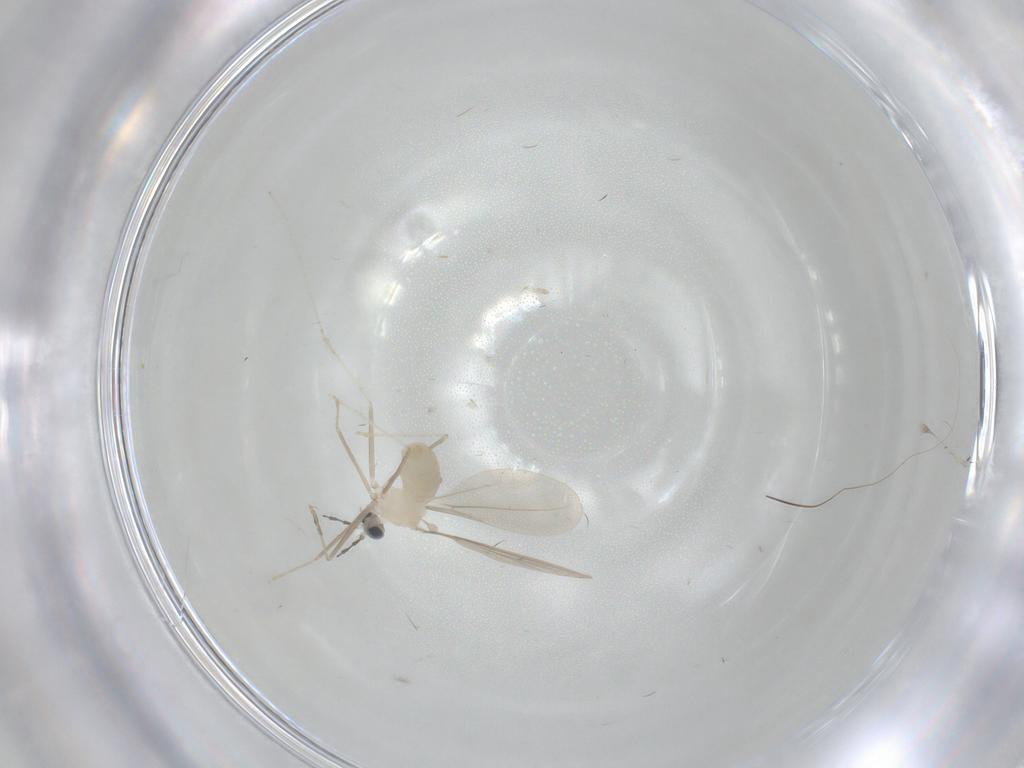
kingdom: Animalia
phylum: Arthropoda
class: Insecta
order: Diptera
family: Cecidomyiidae
